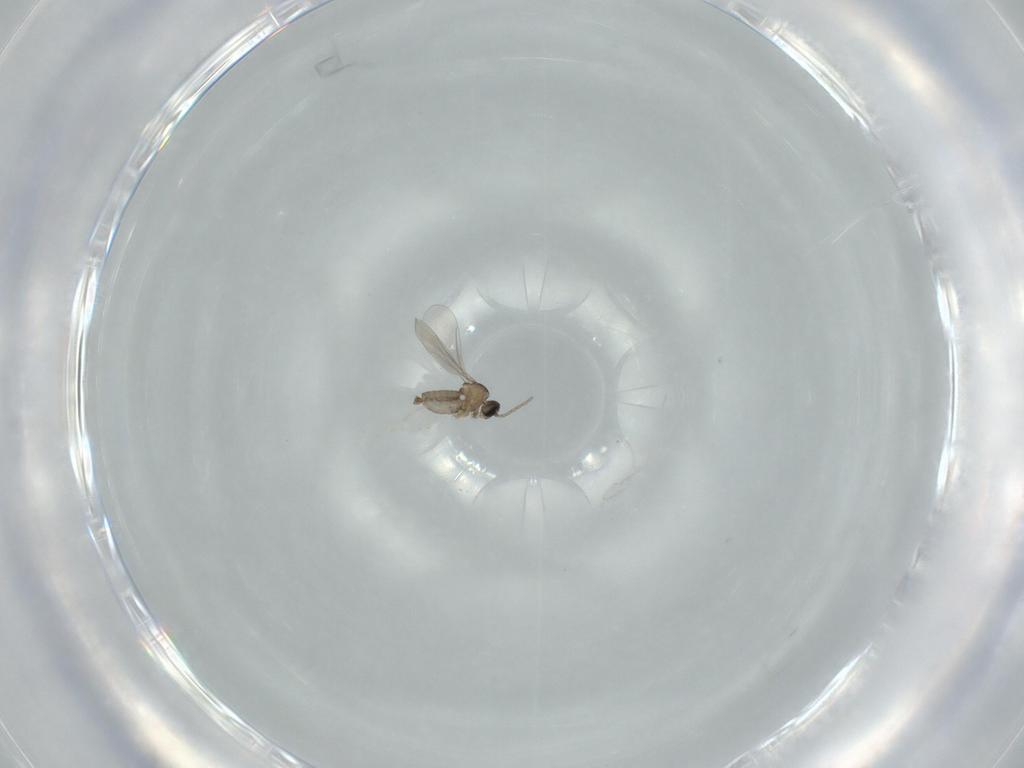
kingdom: Animalia
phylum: Arthropoda
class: Insecta
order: Diptera
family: Cecidomyiidae
